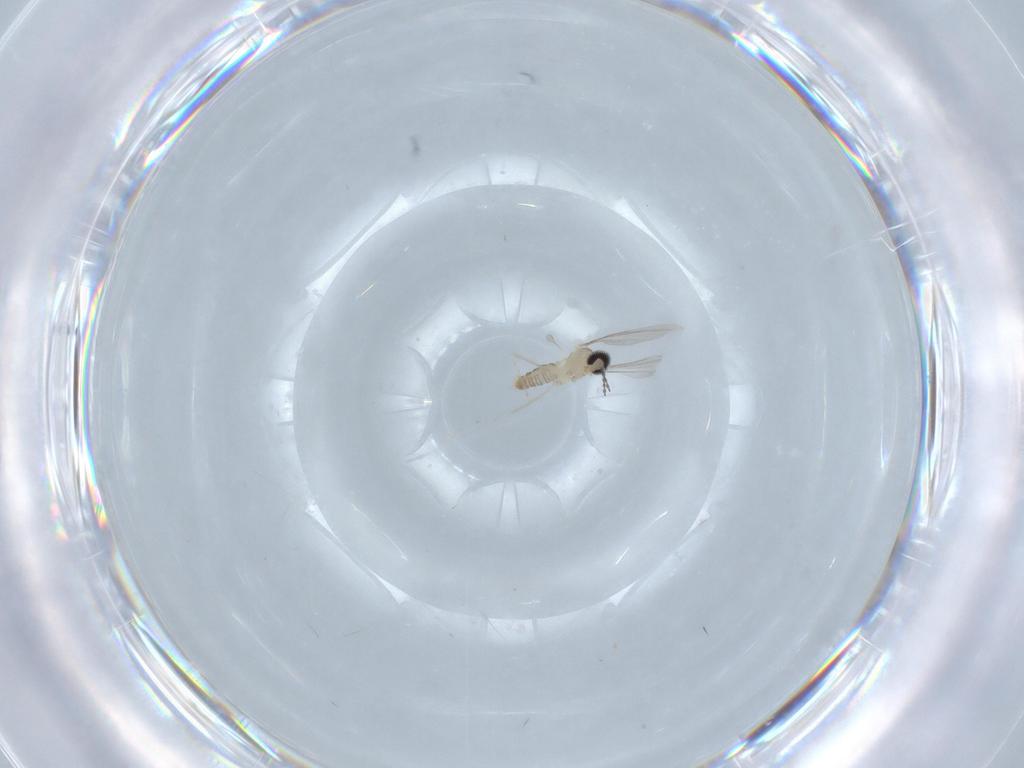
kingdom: Animalia
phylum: Arthropoda
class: Insecta
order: Diptera
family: Cecidomyiidae
